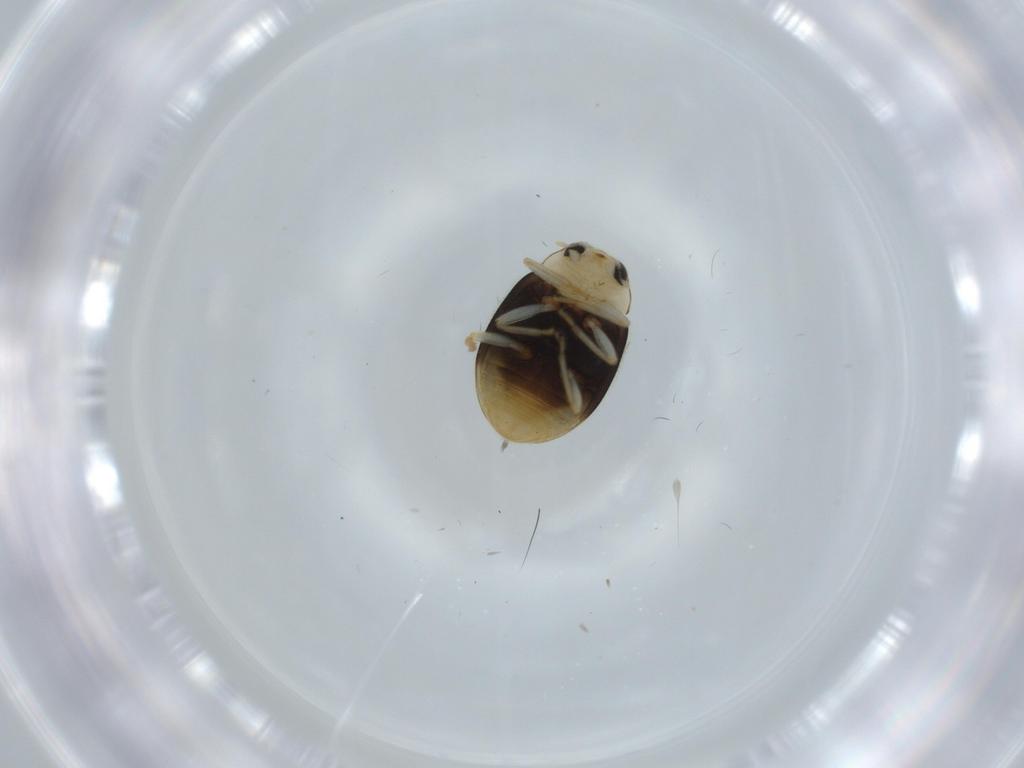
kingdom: Animalia
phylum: Arthropoda
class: Insecta
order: Coleoptera
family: Coccinellidae
